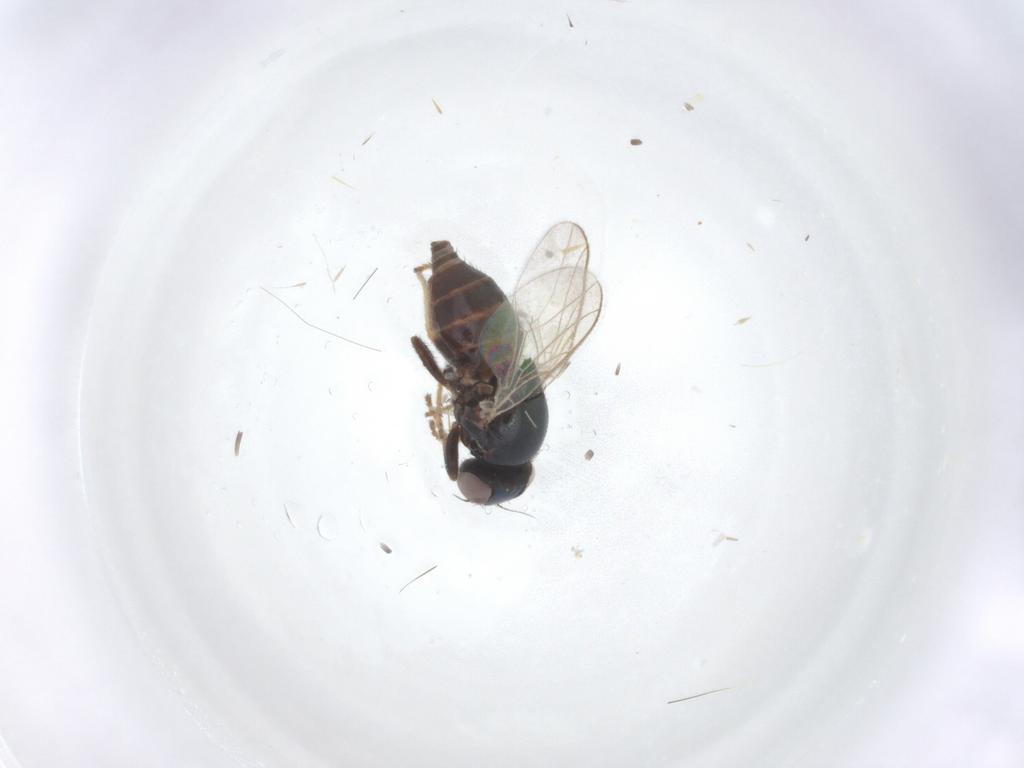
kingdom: Animalia
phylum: Arthropoda
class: Insecta
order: Diptera
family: Chloropidae
